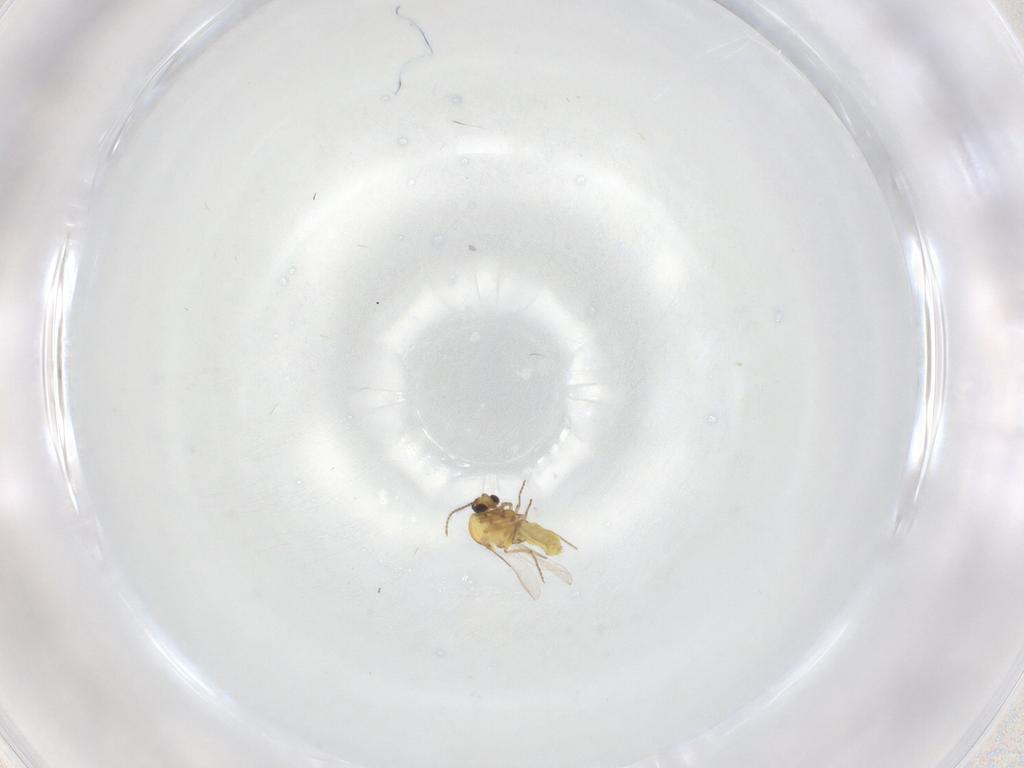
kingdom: Animalia
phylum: Arthropoda
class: Insecta
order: Diptera
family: Ceratopogonidae
